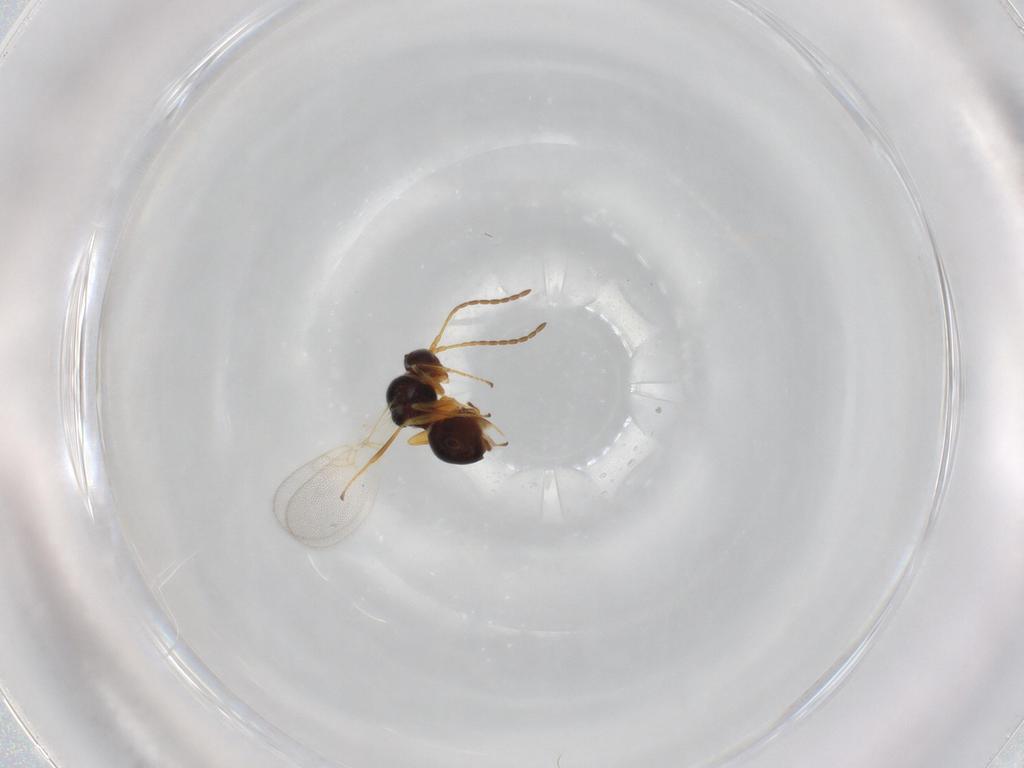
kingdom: Animalia
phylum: Arthropoda
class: Insecta
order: Hymenoptera
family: Figitidae
